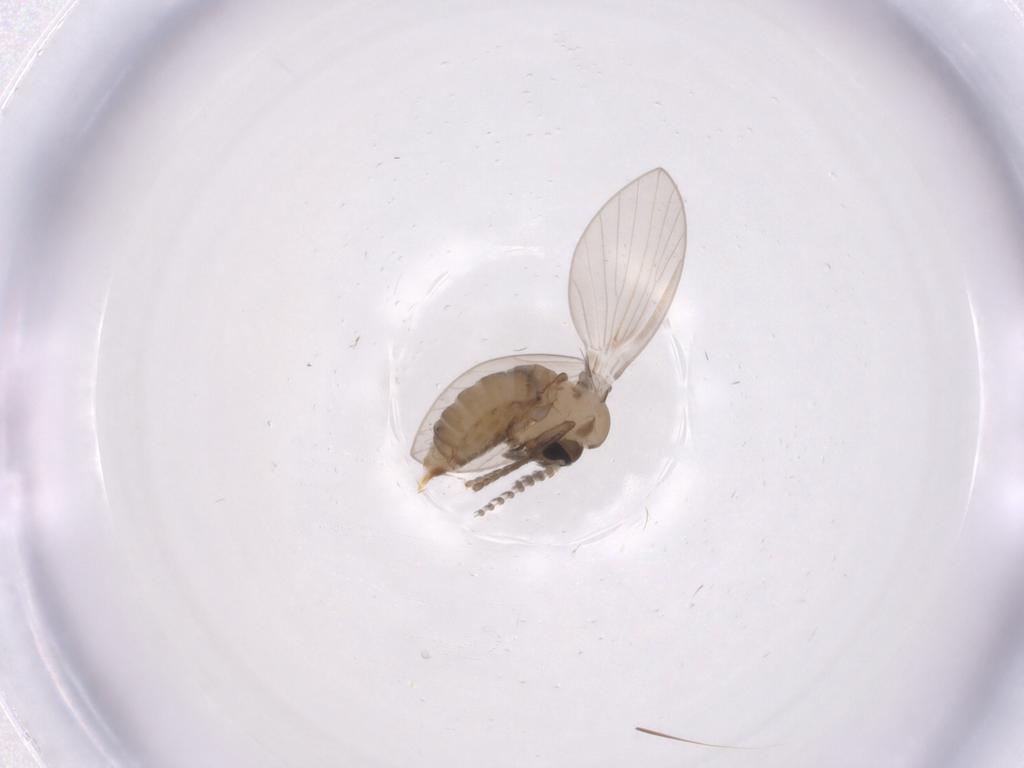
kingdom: Animalia
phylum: Arthropoda
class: Insecta
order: Diptera
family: Psychodidae
